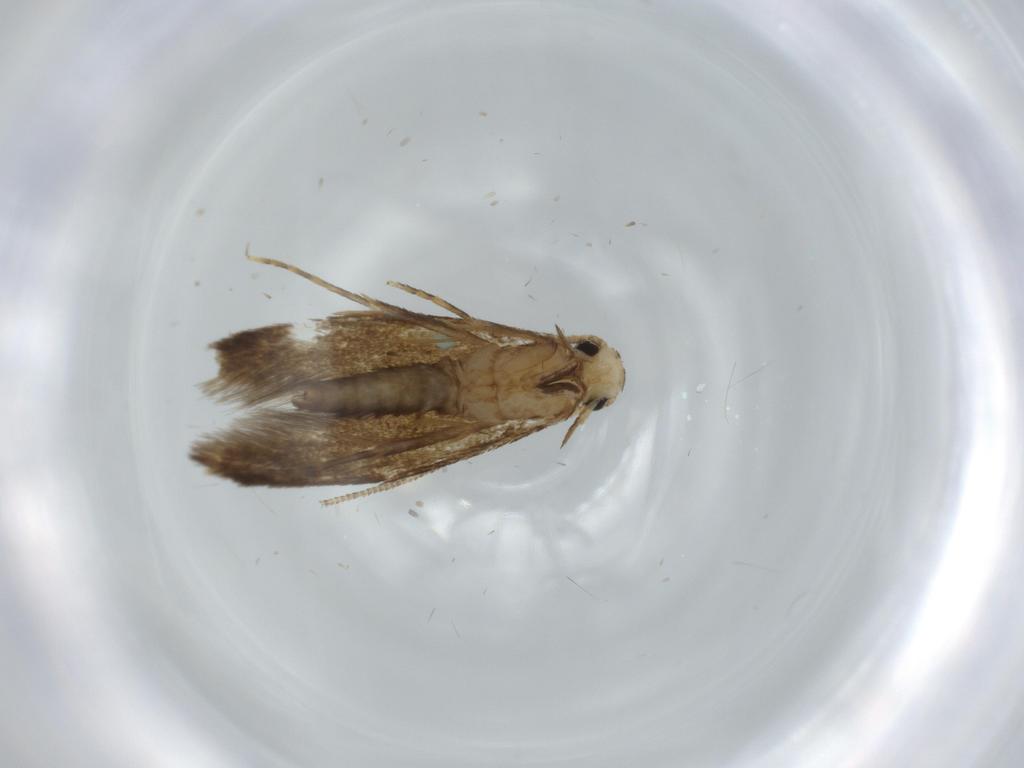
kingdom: Animalia
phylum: Arthropoda
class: Insecta
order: Lepidoptera
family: Tineidae
